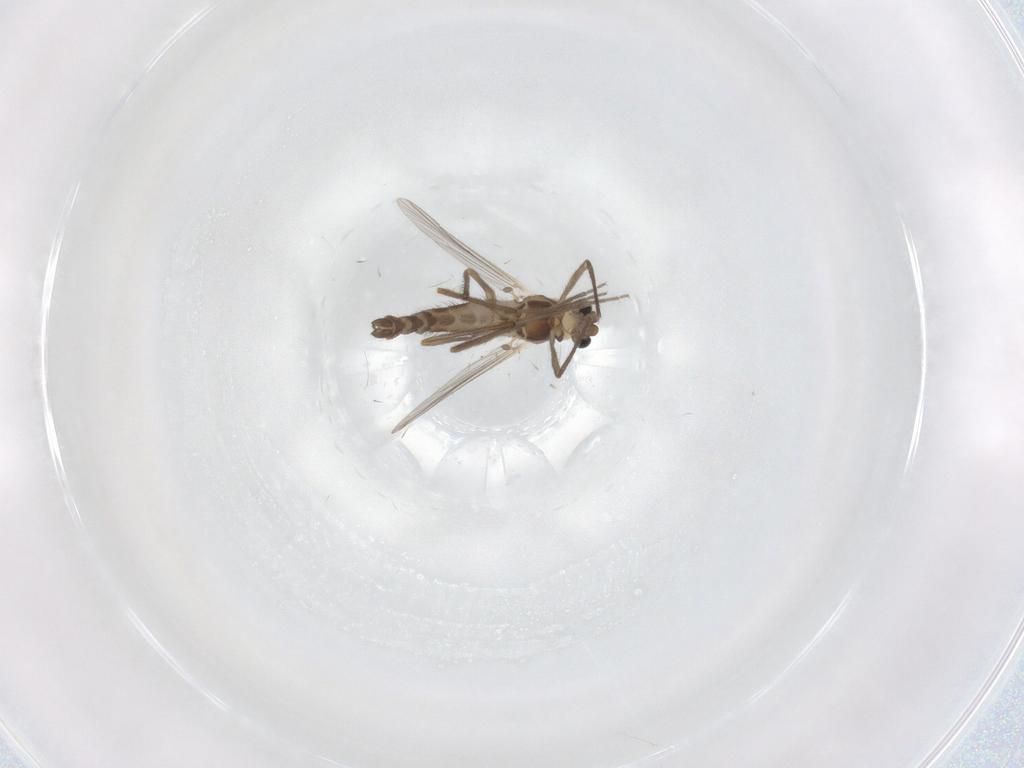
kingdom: Animalia
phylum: Arthropoda
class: Insecta
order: Diptera
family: Chironomidae
